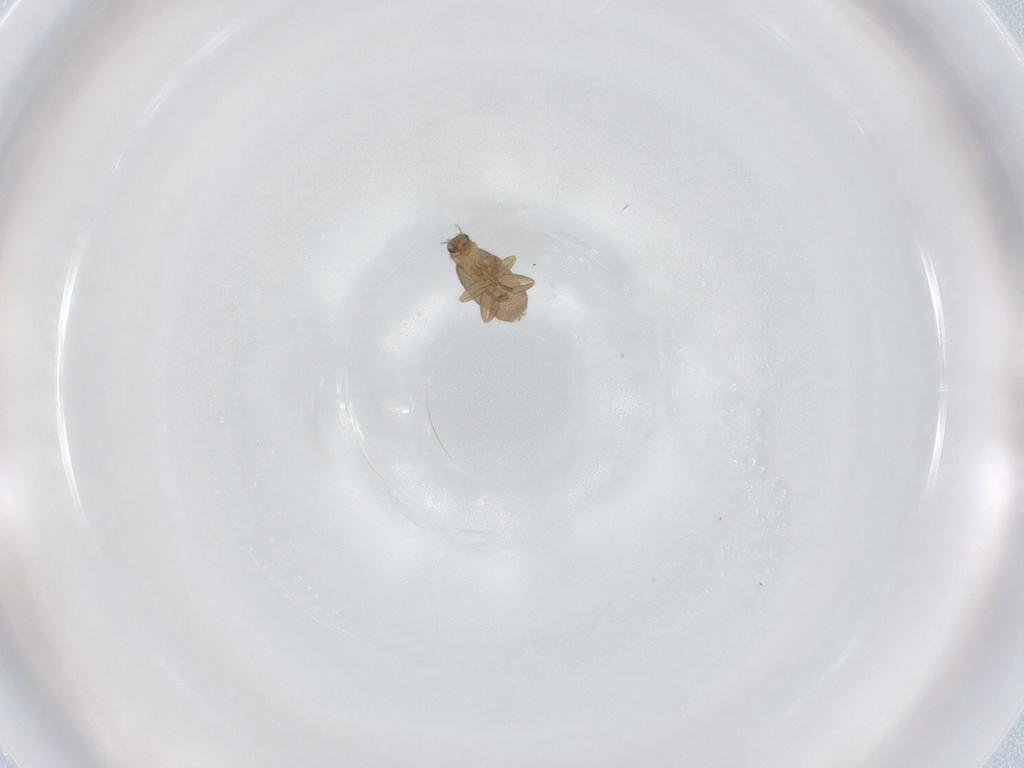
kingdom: Animalia
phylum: Arthropoda
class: Insecta
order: Diptera
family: Phoridae
